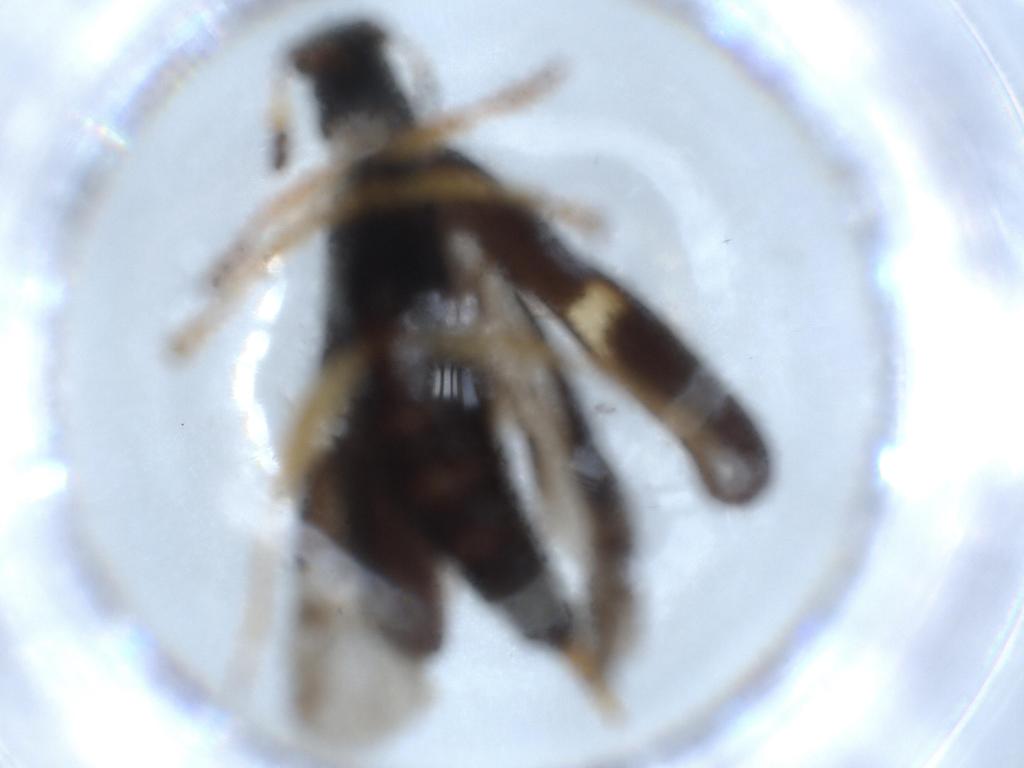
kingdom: Animalia
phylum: Arthropoda
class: Insecta
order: Coleoptera
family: Cleridae
